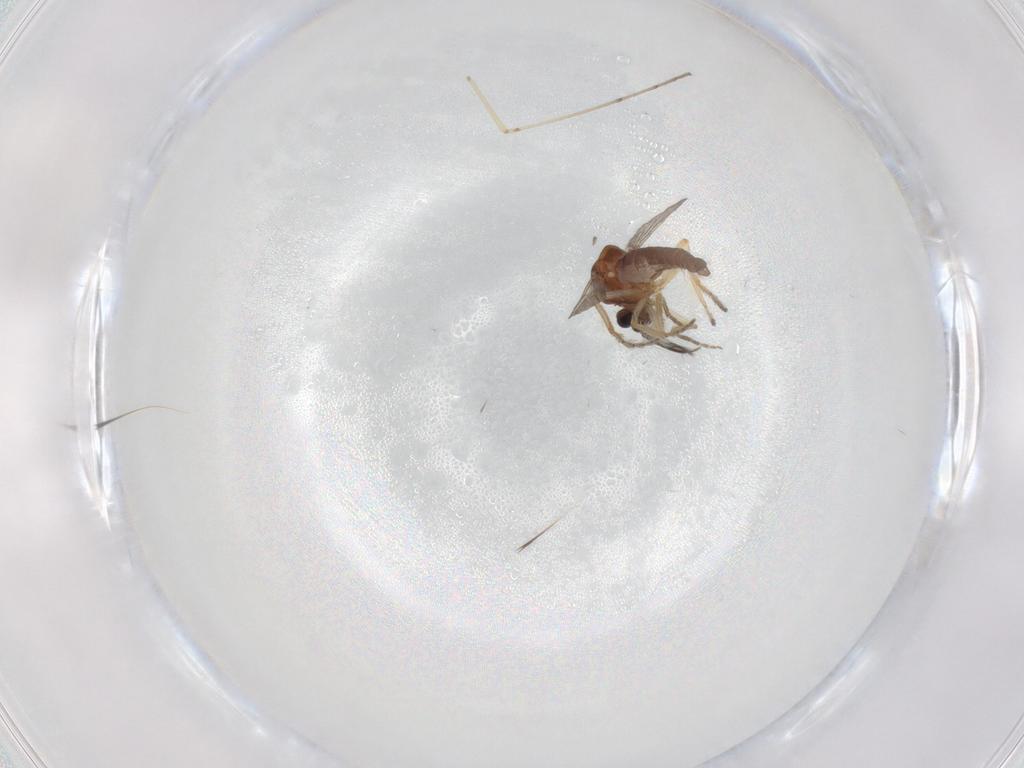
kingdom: Animalia
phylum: Arthropoda
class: Insecta
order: Diptera
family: Ceratopogonidae
